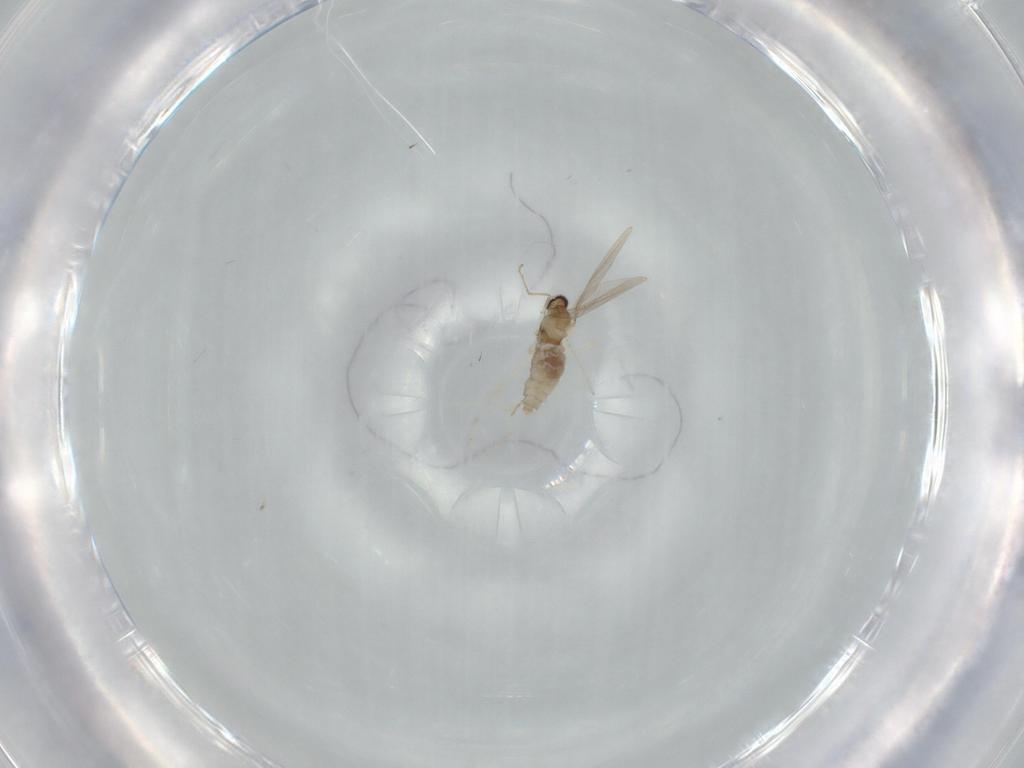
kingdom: Animalia
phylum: Arthropoda
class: Insecta
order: Diptera
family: Cecidomyiidae
